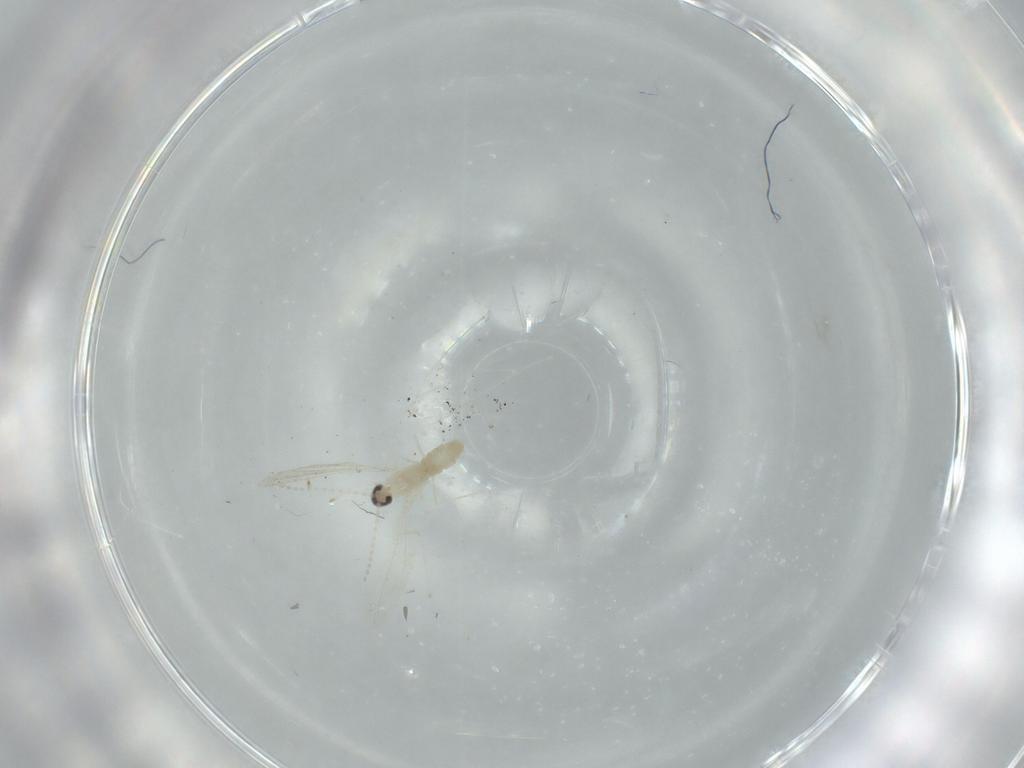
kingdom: Animalia
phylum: Arthropoda
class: Insecta
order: Diptera
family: Cecidomyiidae
